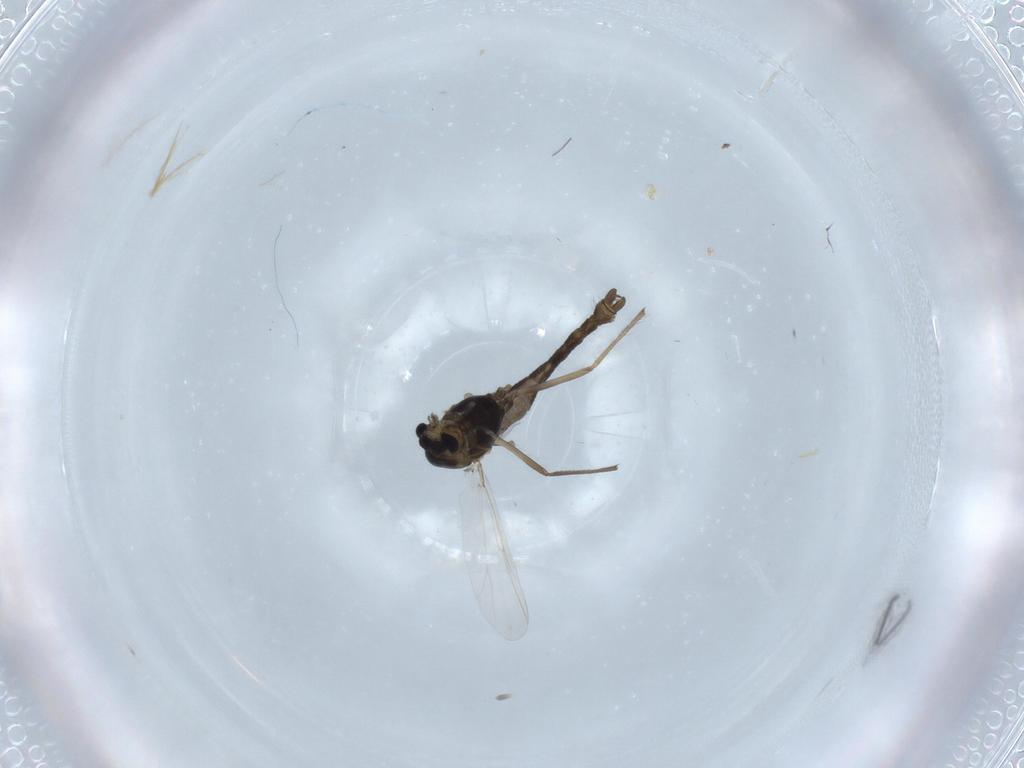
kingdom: Animalia
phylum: Arthropoda
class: Insecta
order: Diptera
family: Chironomidae
